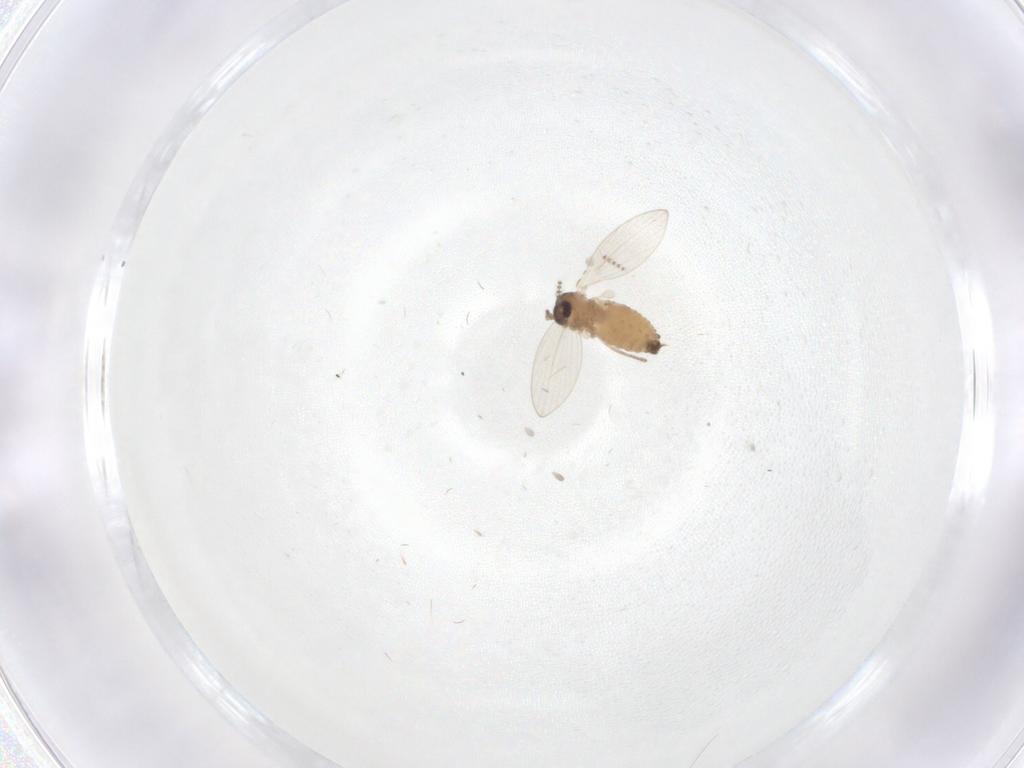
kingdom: Animalia
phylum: Arthropoda
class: Insecta
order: Diptera
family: Psychodidae
